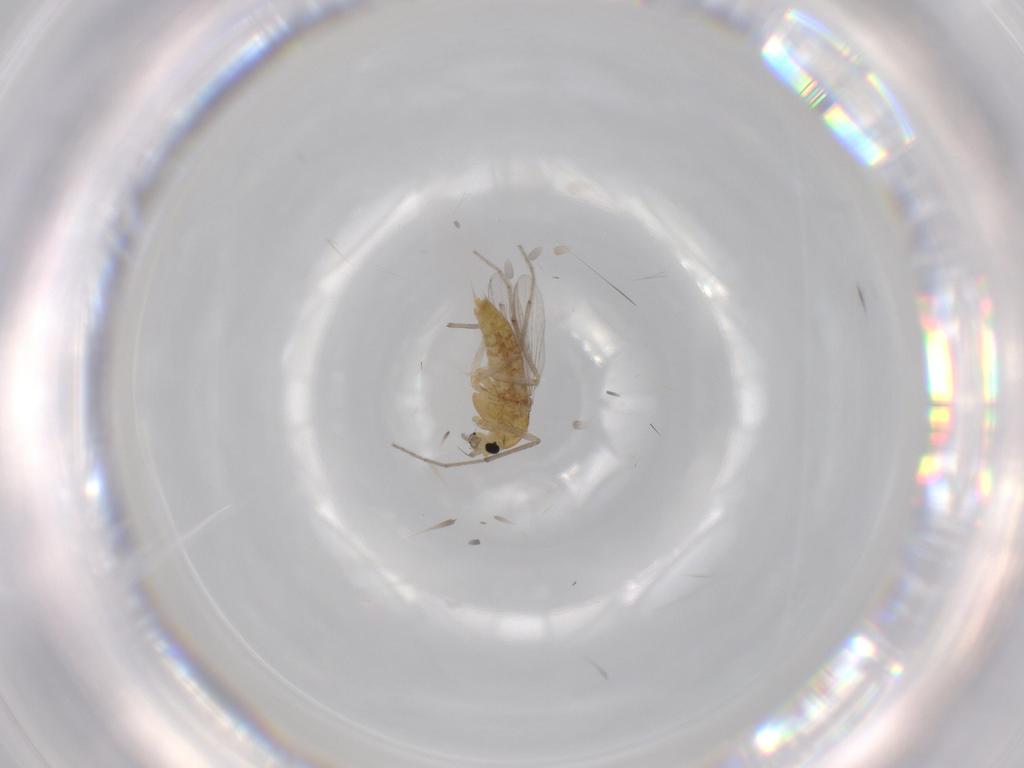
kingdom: Animalia
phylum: Arthropoda
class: Insecta
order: Diptera
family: Chironomidae
